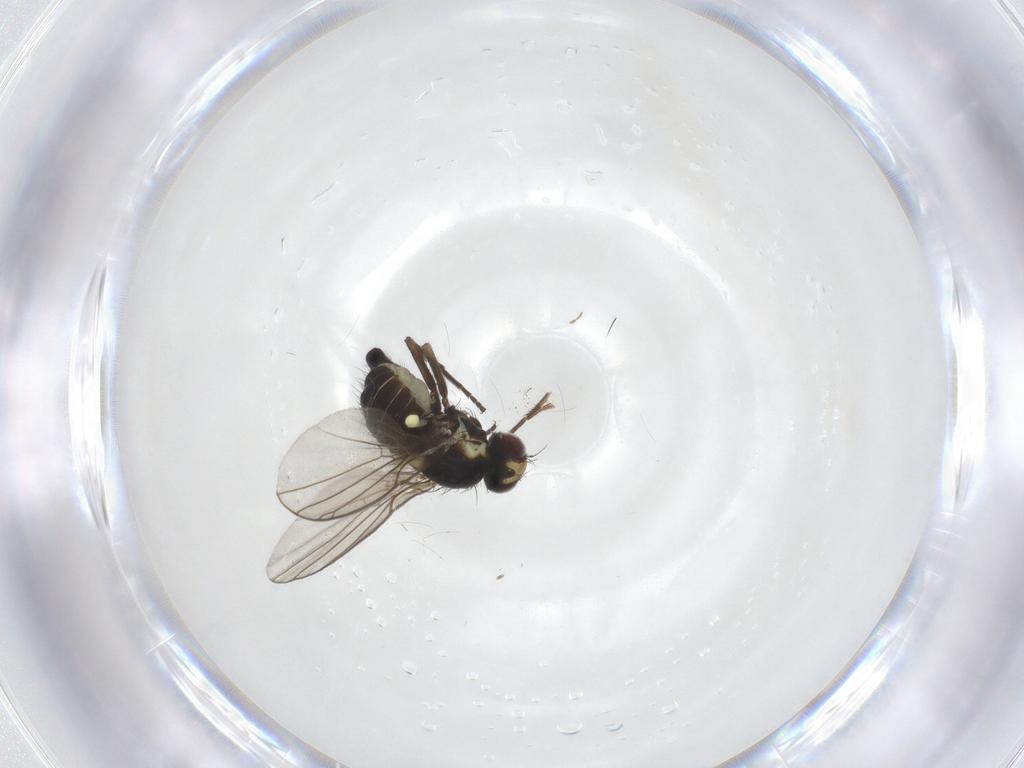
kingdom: Animalia
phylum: Arthropoda
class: Insecta
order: Diptera
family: Agromyzidae
